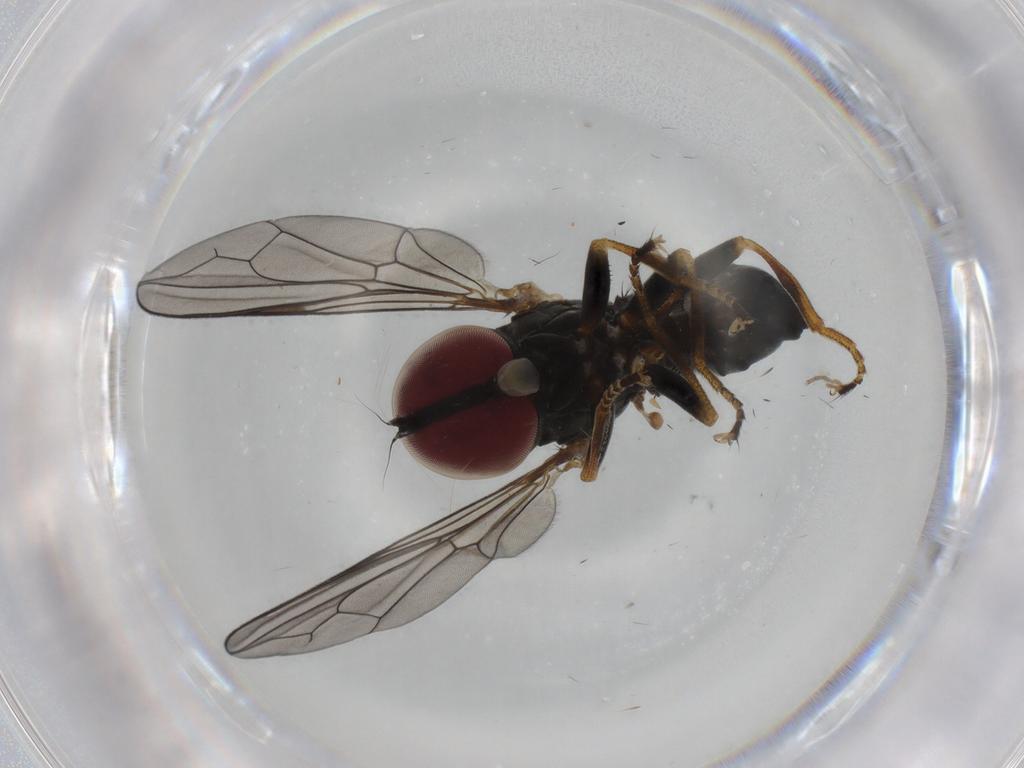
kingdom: Animalia
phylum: Arthropoda
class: Insecta
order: Diptera
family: Pipunculidae
